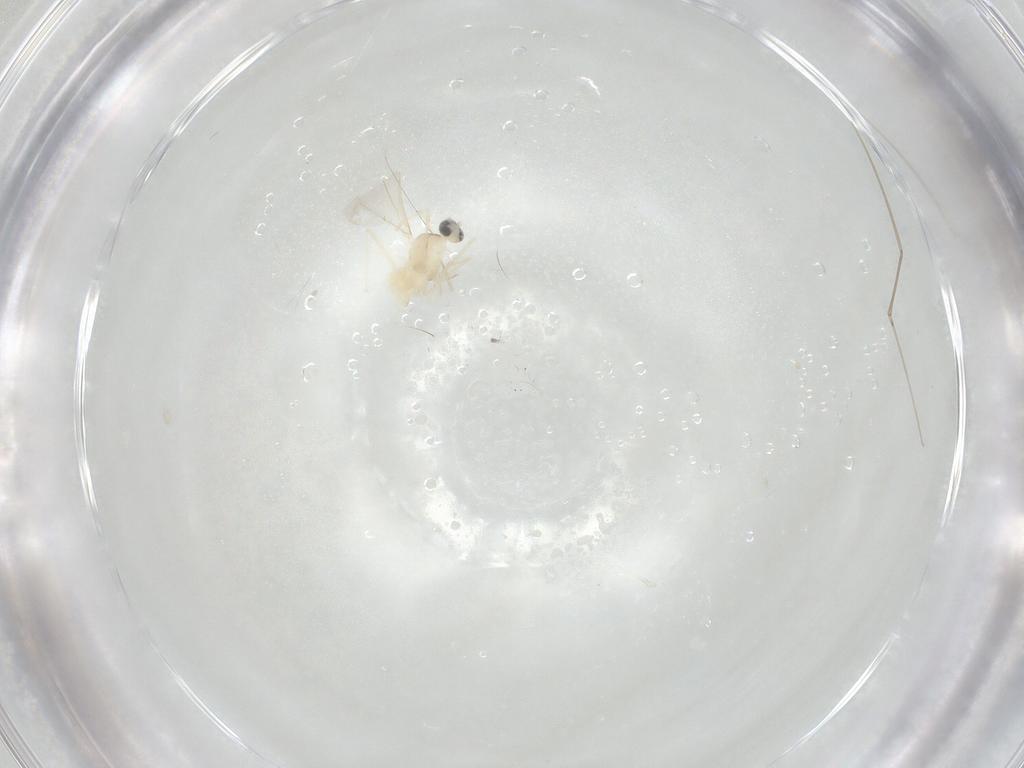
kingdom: Animalia
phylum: Arthropoda
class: Insecta
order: Diptera
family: Cecidomyiidae
